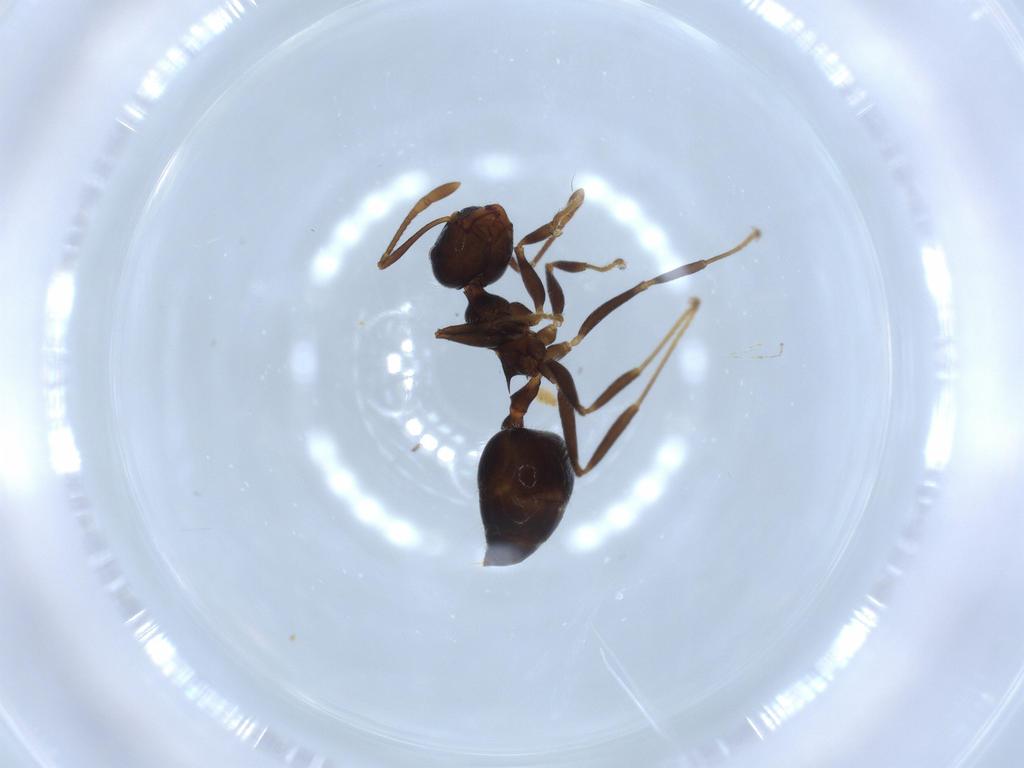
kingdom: Animalia
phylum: Arthropoda
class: Insecta
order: Hymenoptera
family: Formicidae
